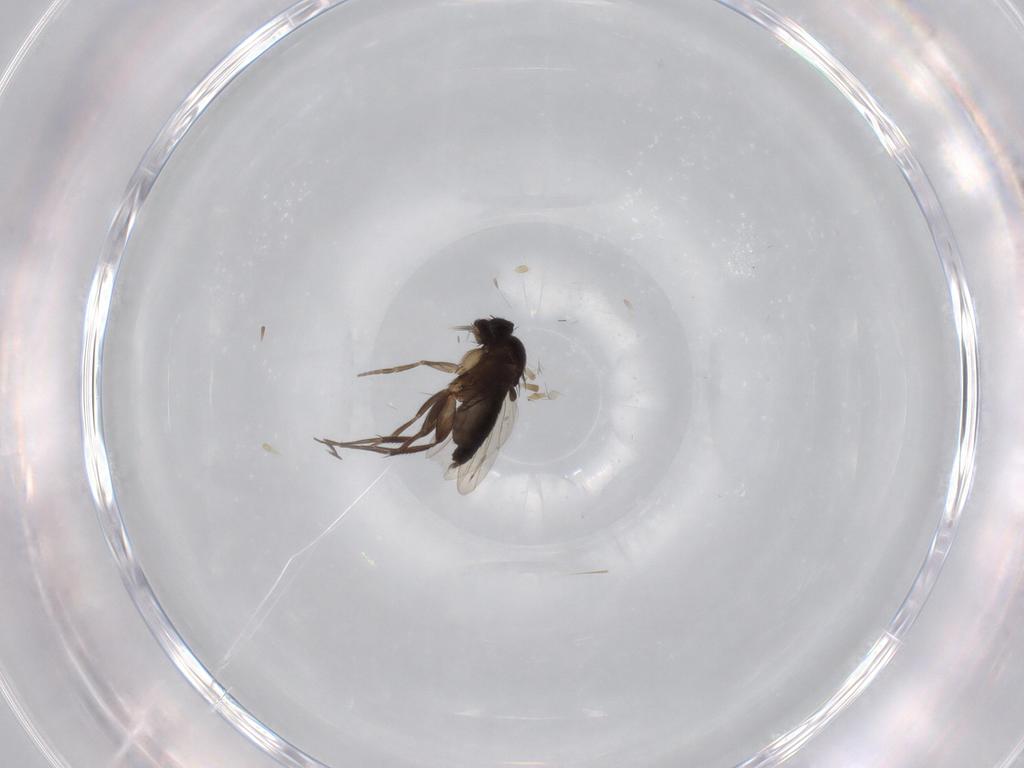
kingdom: Animalia
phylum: Arthropoda
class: Insecta
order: Diptera
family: Phoridae
